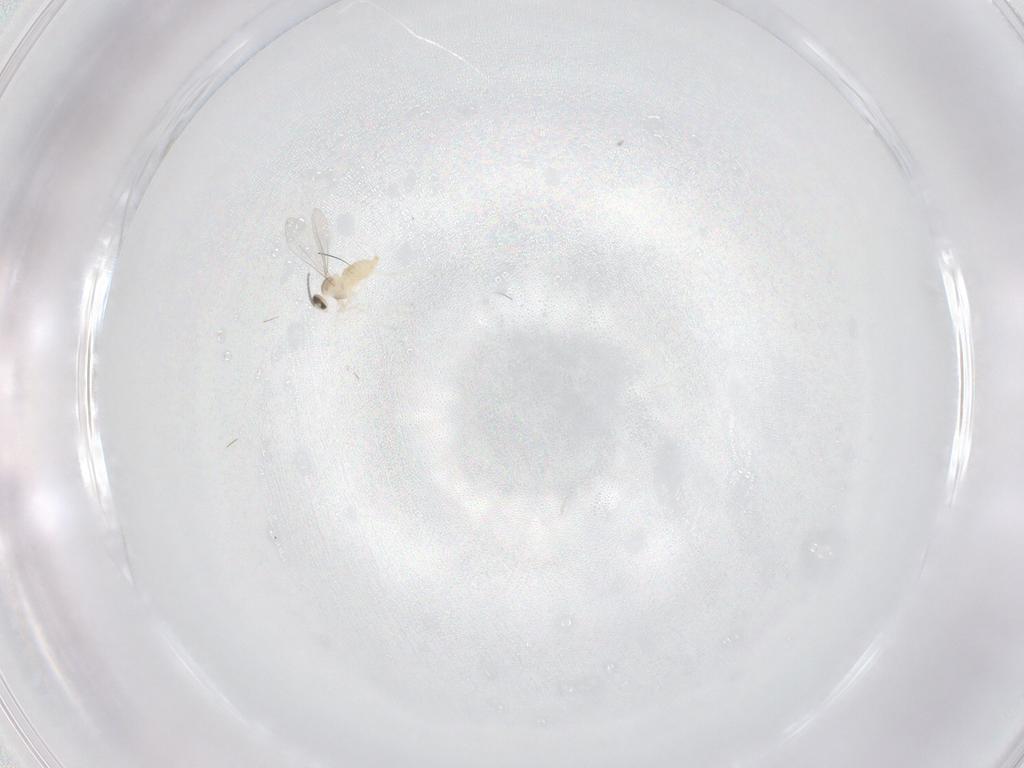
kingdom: Animalia
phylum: Arthropoda
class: Insecta
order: Diptera
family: Cecidomyiidae
